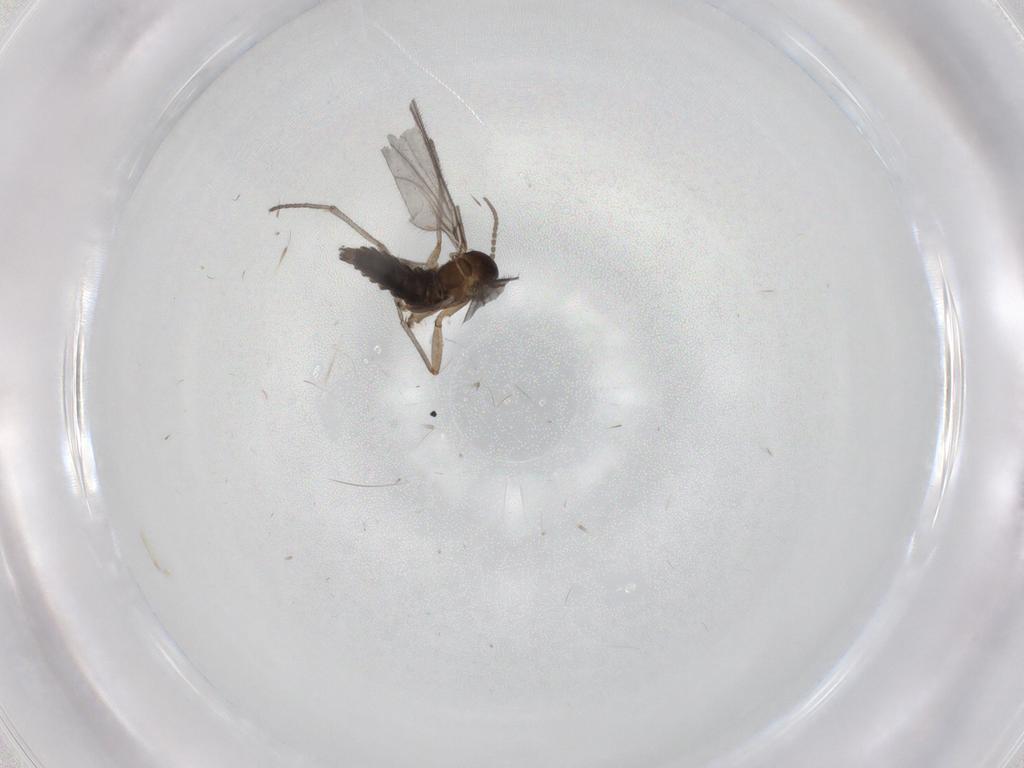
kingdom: Animalia
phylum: Arthropoda
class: Insecta
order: Diptera
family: Sciaridae
